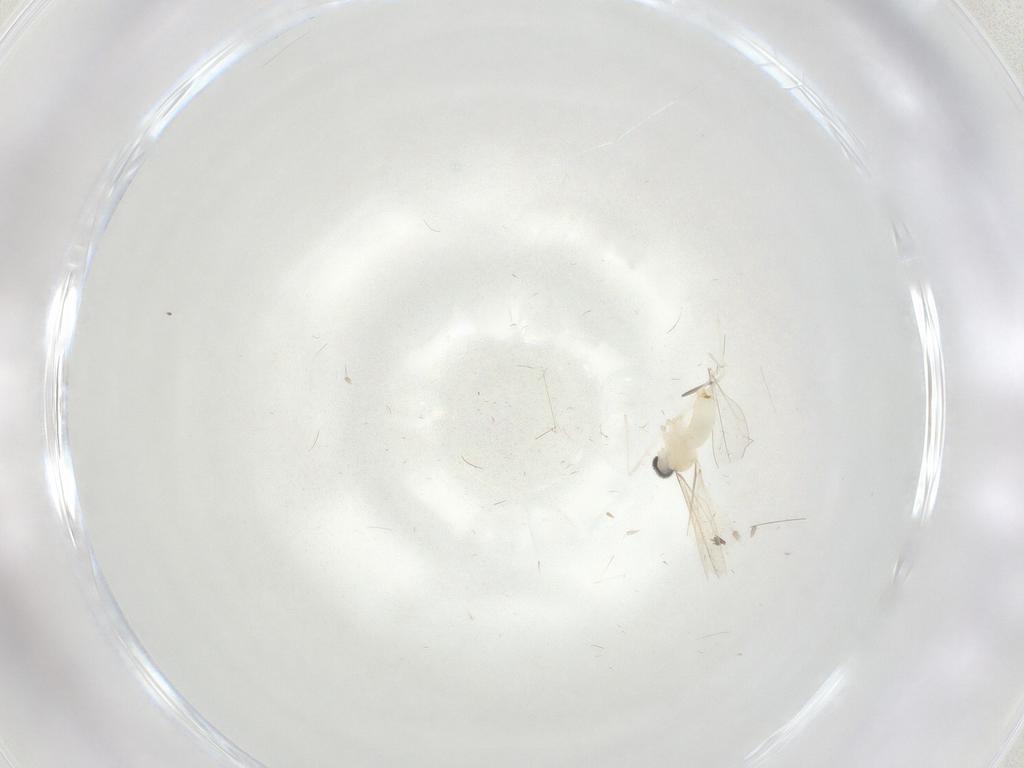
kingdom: Animalia
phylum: Arthropoda
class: Insecta
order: Diptera
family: Cecidomyiidae
